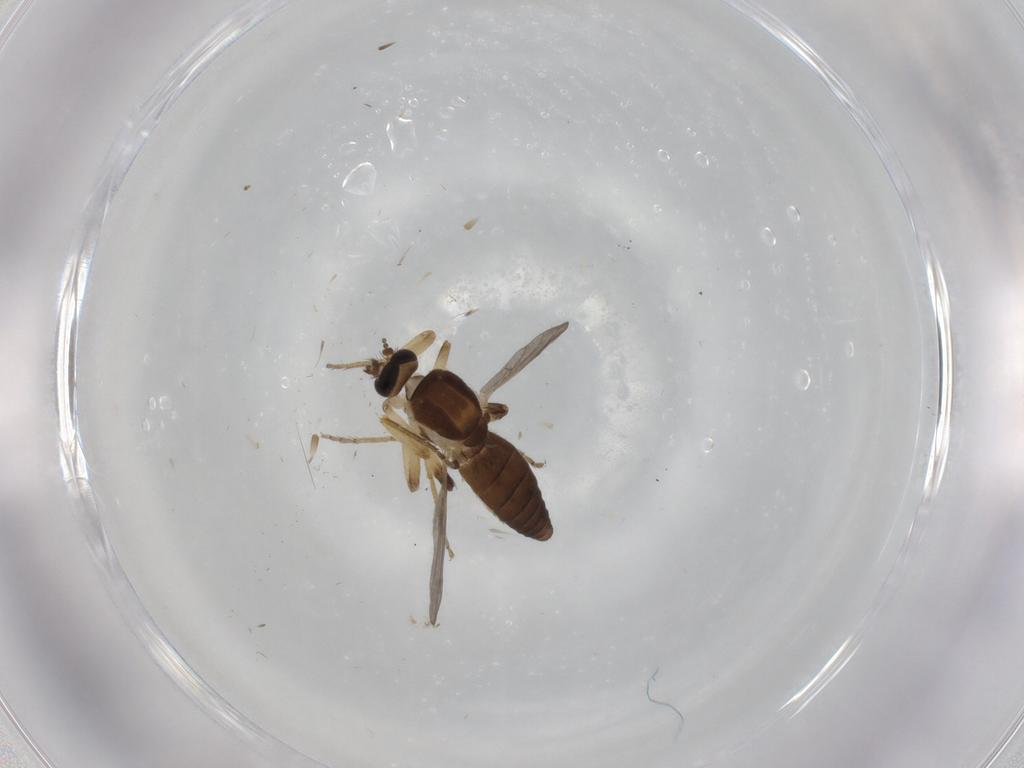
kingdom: Animalia
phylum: Arthropoda
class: Insecta
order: Diptera
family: Ceratopogonidae
